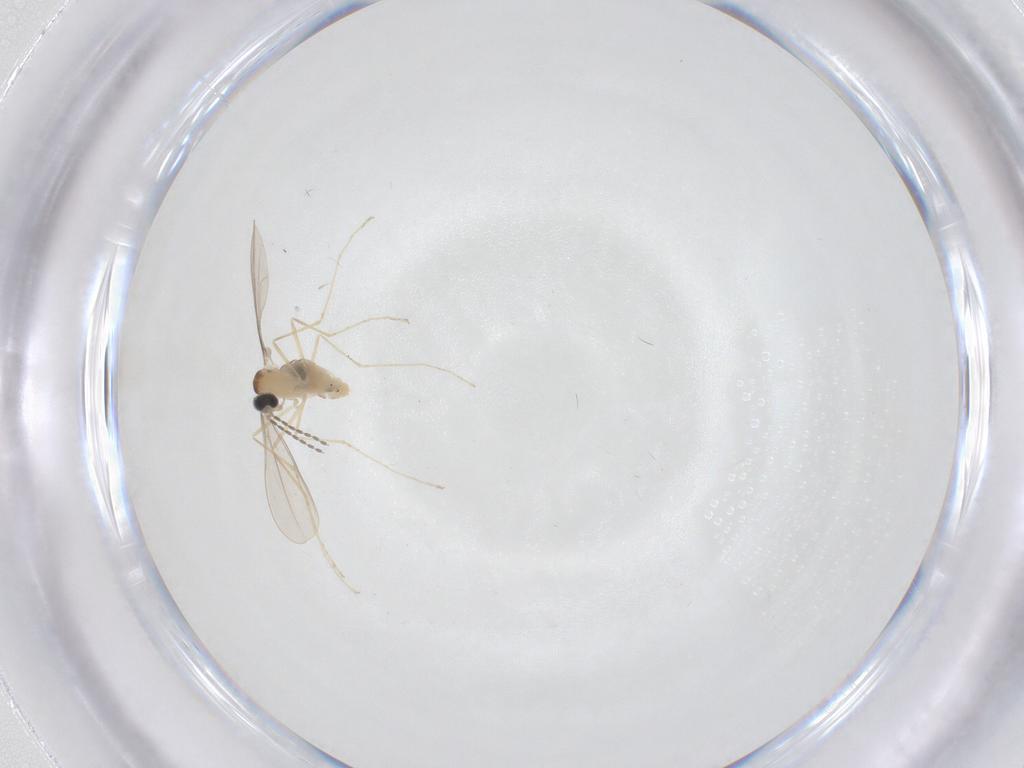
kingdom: Animalia
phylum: Arthropoda
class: Insecta
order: Diptera
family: Cecidomyiidae
